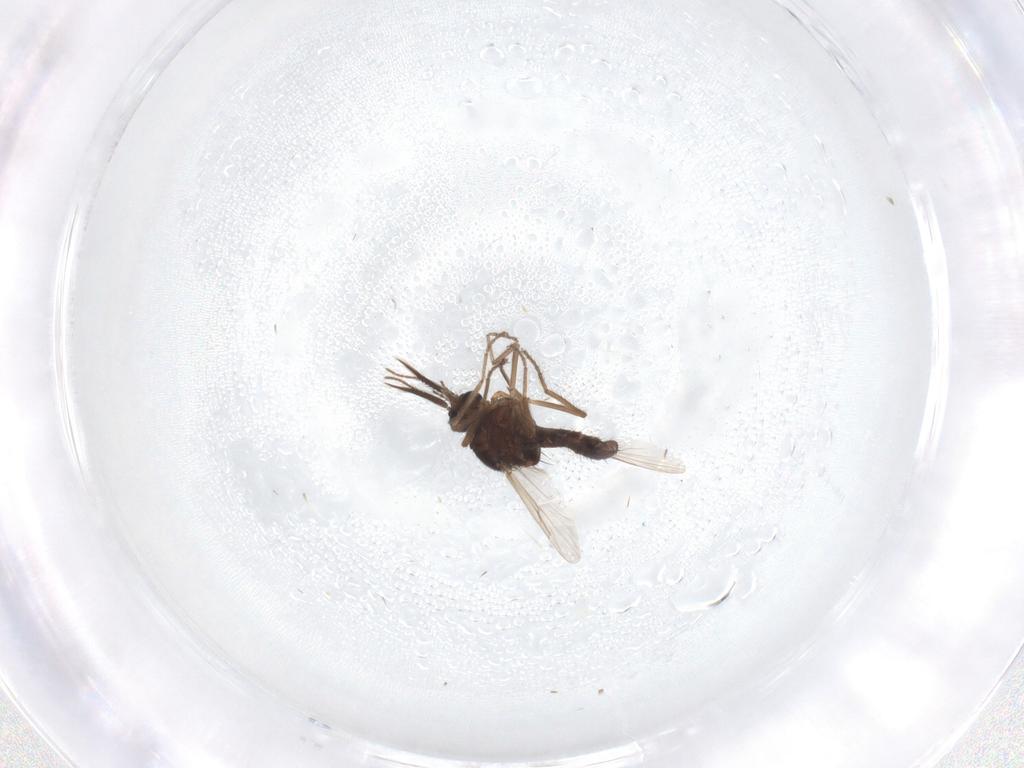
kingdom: Animalia
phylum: Arthropoda
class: Insecta
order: Diptera
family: Ceratopogonidae
